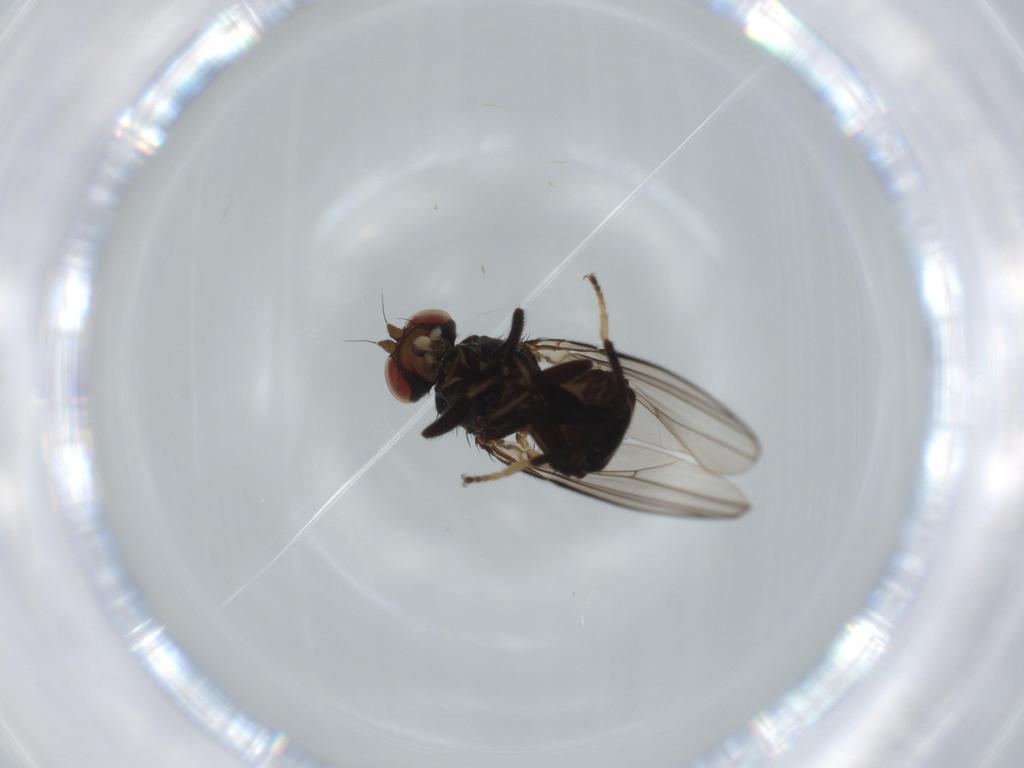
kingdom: Animalia
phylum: Arthropoda
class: Insecta
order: Diptera
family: Asilidae
